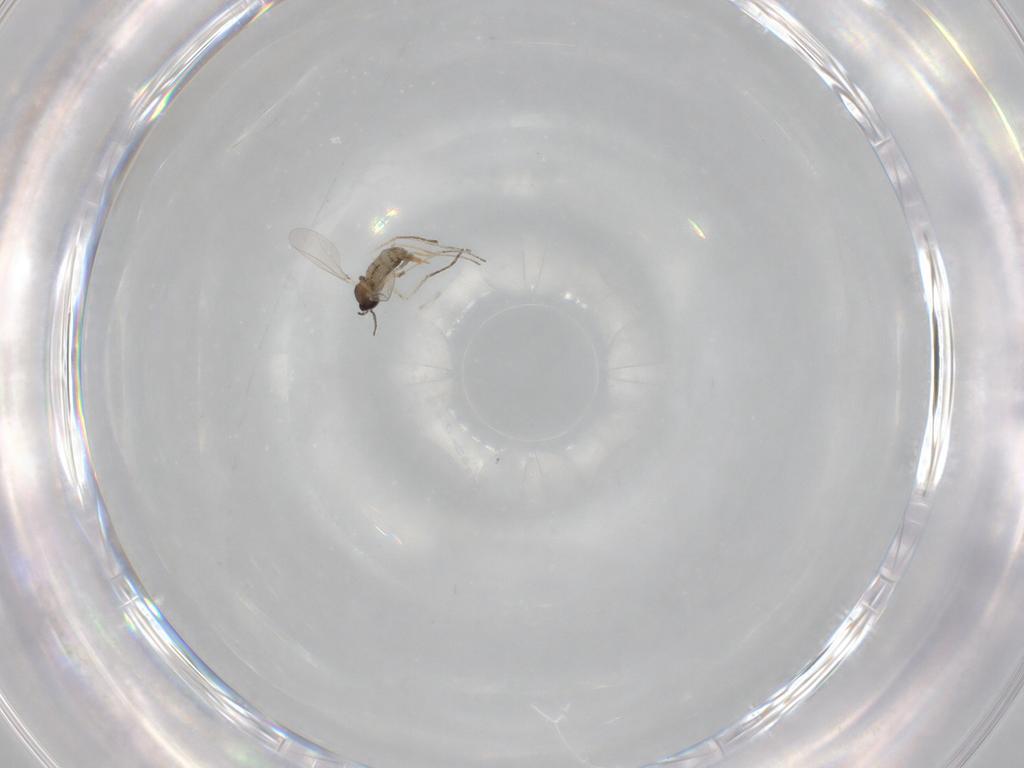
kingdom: Animalia
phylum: Arthropoda
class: Insecta
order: Diptera
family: Cecidomyiidae
